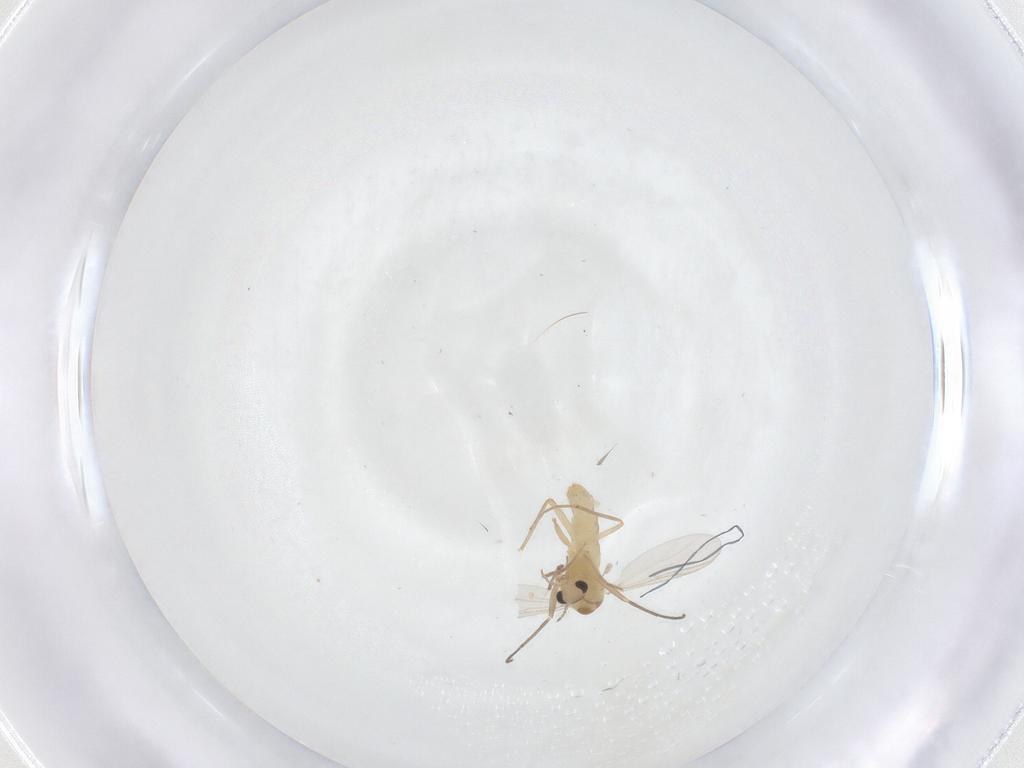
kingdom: Animalia
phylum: Arthropoda
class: Insecta
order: Diptera
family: Chironomidae
